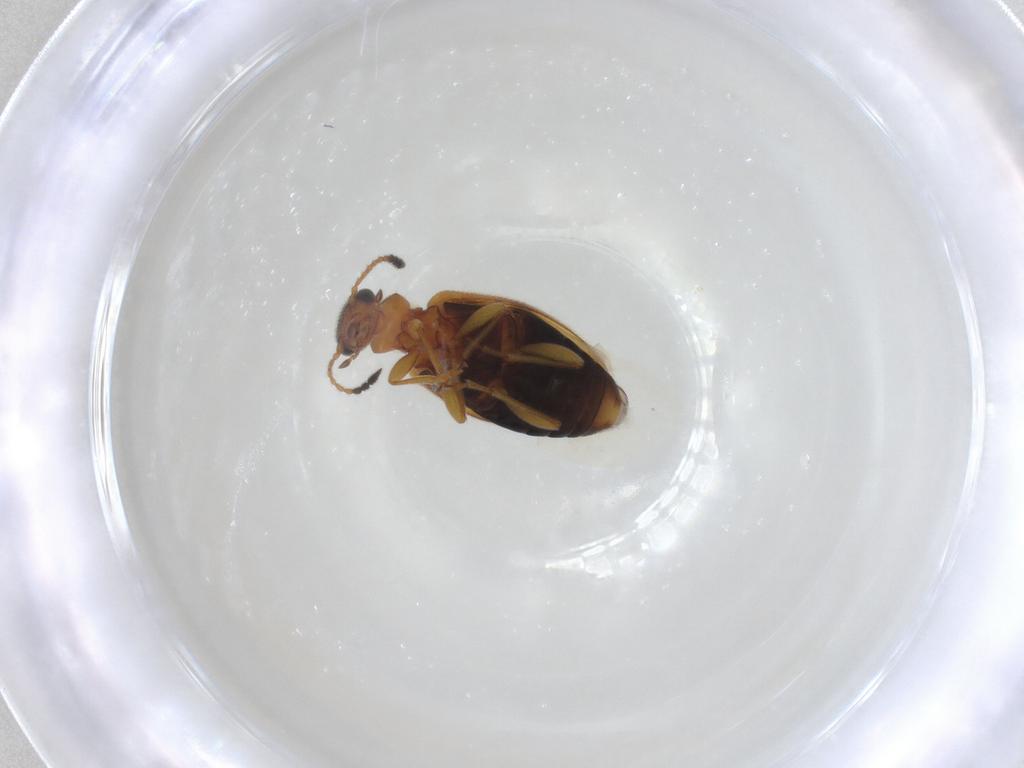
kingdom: Animalia
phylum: Arthropoda
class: Insecta
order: Coleoptera
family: Anthicidae
